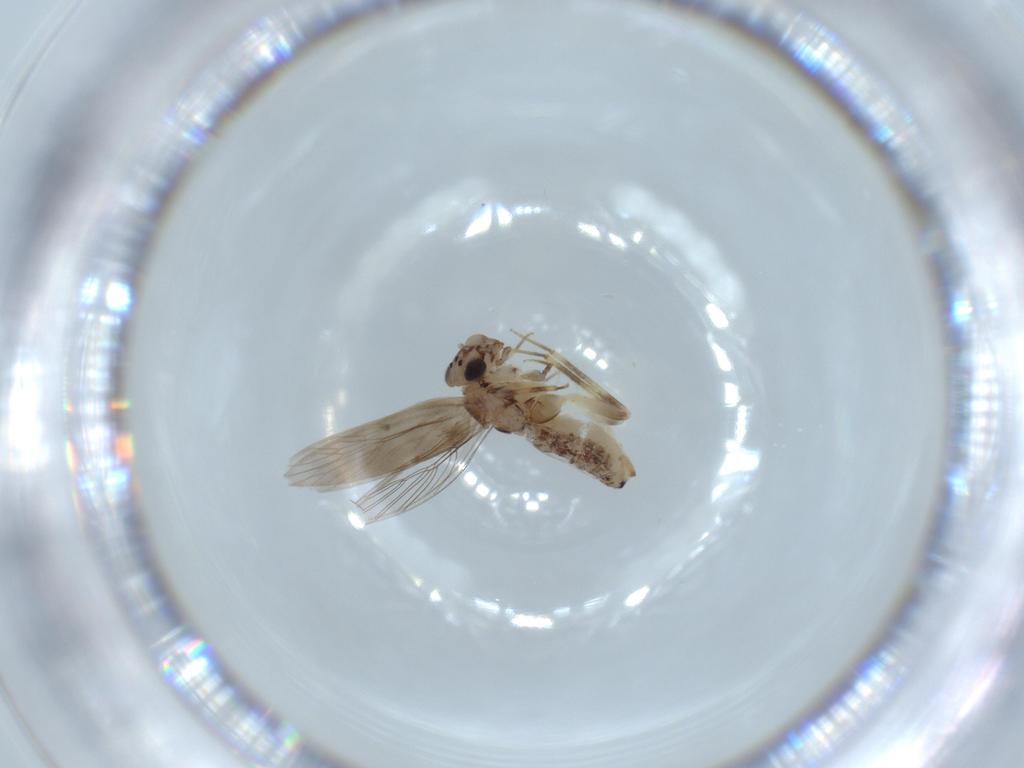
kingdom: Animalia
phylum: Arthropoda
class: Insecta
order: Psocodea
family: Lepidopsocidae
